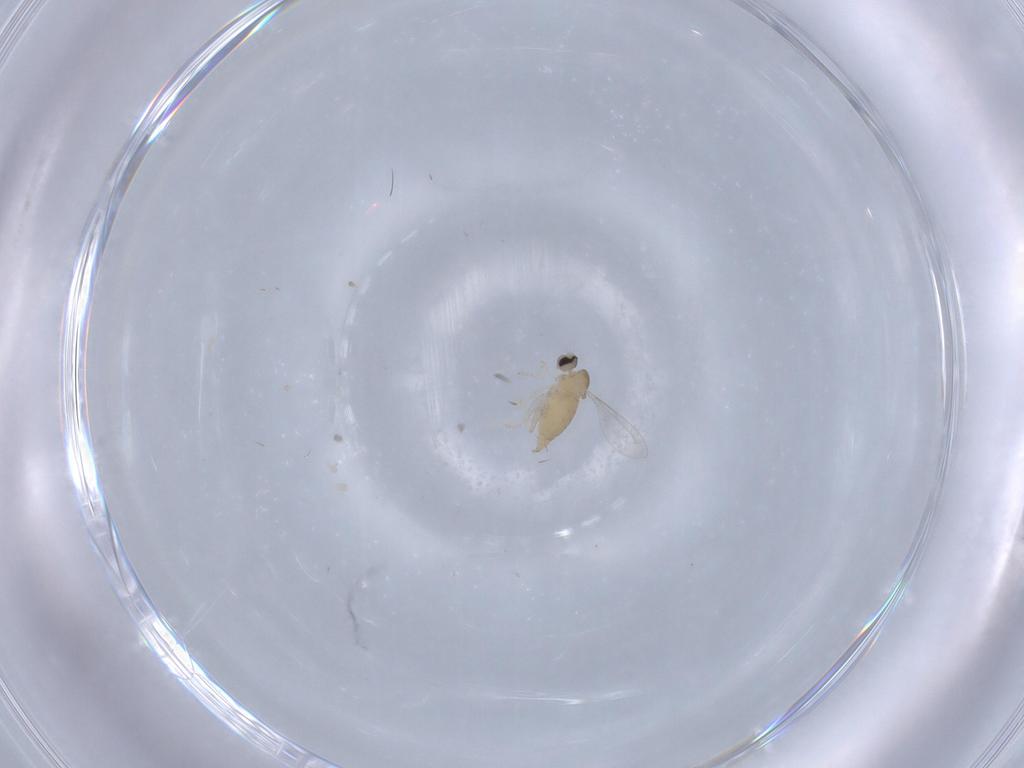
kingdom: Animalia
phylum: Arthropoda
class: Insecta
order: Diptera
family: Cecidomyiidae
